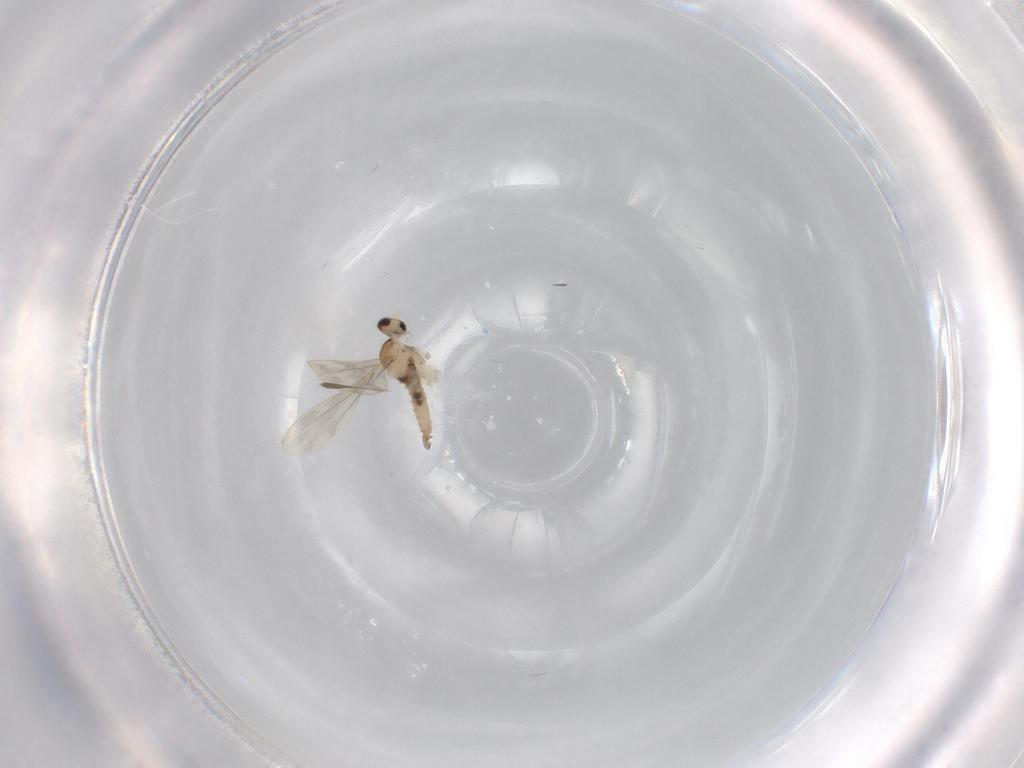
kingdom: Animalia
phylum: Arthropoda
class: Insecta
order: Diptera
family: Cecidomyiidae
